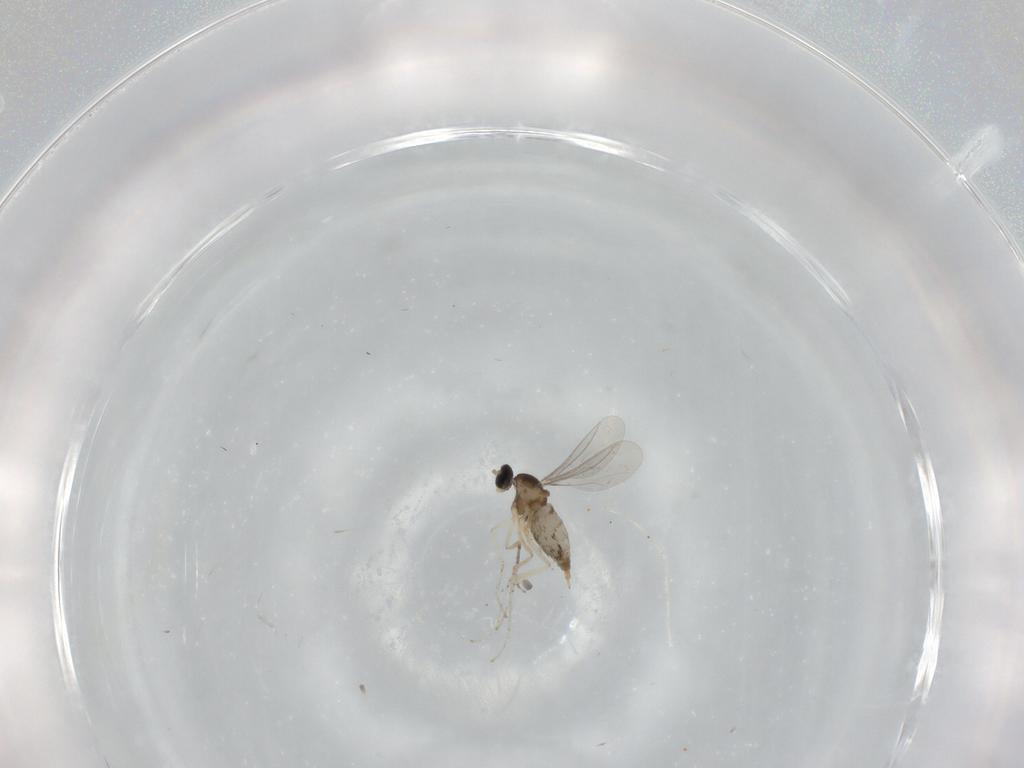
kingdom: Animalia
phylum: Arthropoda
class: Insecta
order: Diptera
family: Cecidomyiidae
